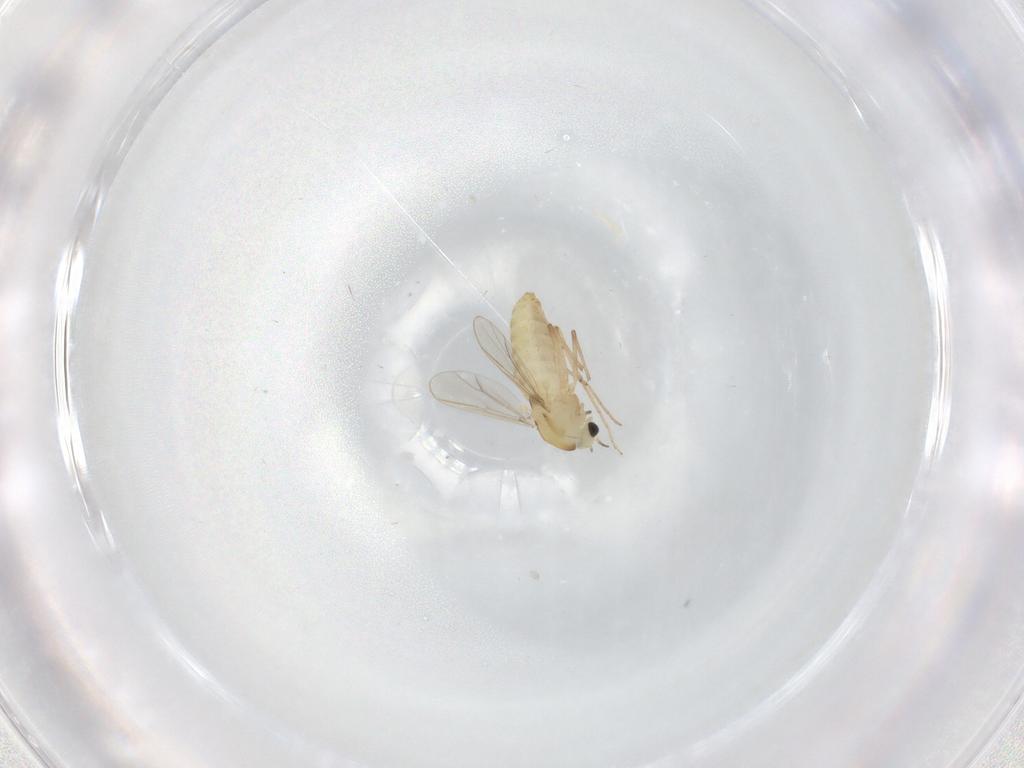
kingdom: Animalia
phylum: Arthropoda
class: Insecta
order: Diptera
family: Chironomidae
